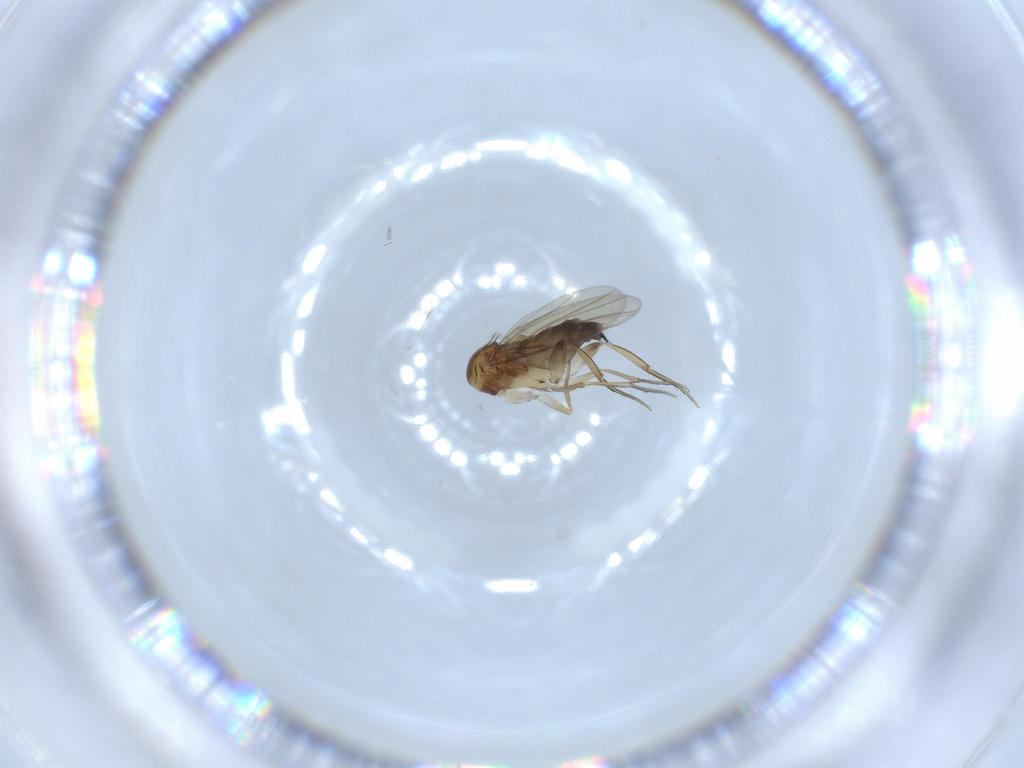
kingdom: Animalia
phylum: Arthropoda
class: Insecta
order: Diptera
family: Phoridae
